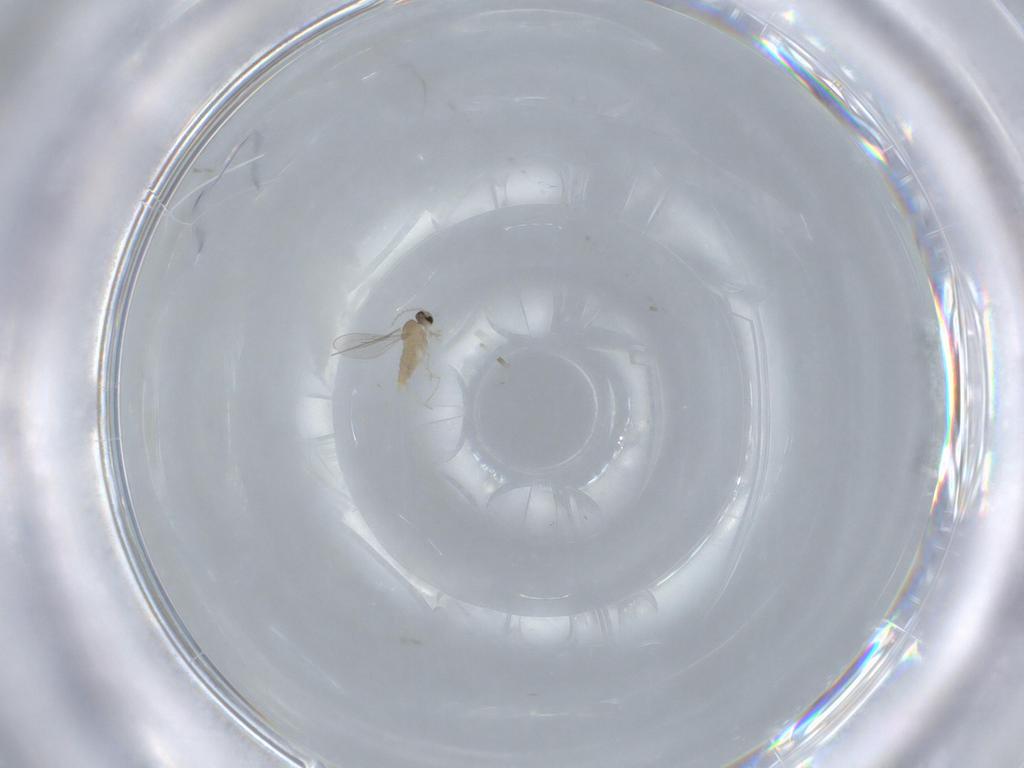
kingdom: Animalia
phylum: Arthropoda
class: Insecta
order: Diptera
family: Cecidomyiidae
